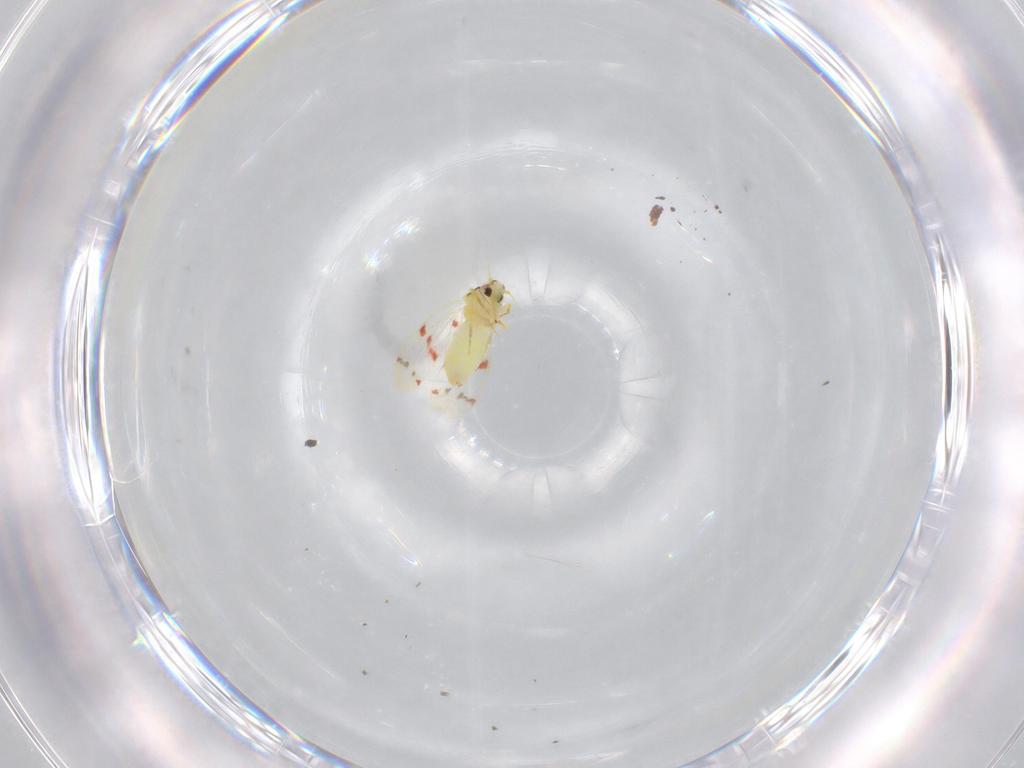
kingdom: Animalia
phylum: Arthropoda
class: Insecta
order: Hemiptera
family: Aleyrodidae
